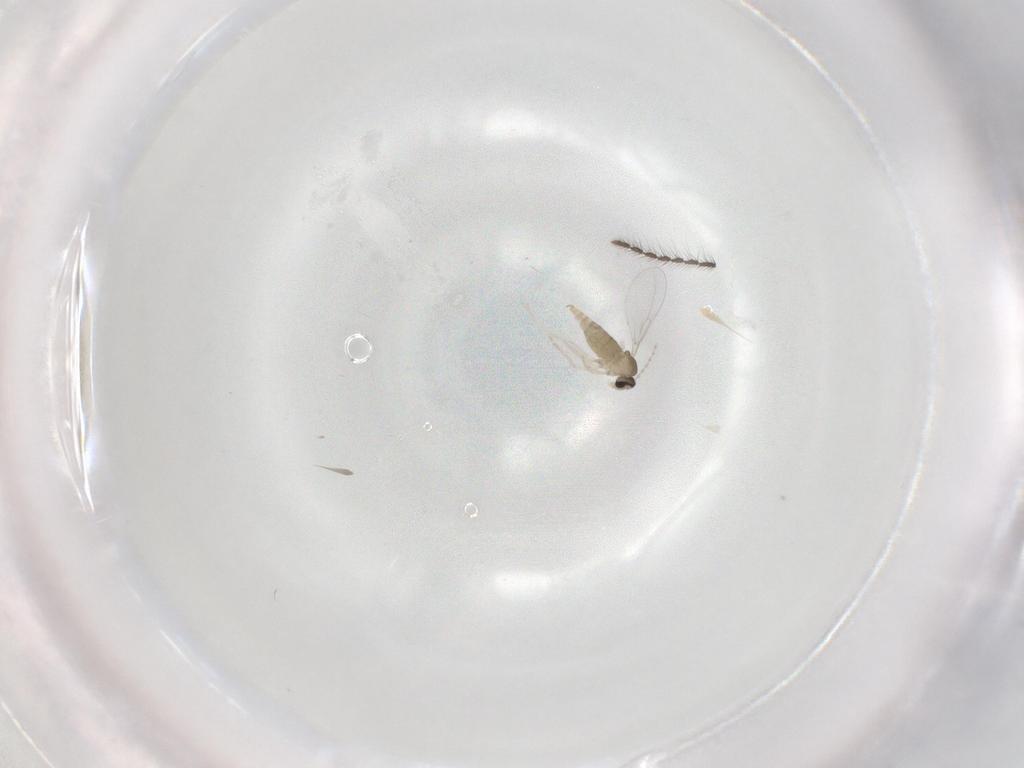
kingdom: Animalia
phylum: Arthropoda
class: Insecta
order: Diptera
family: Cecidomyiidae
